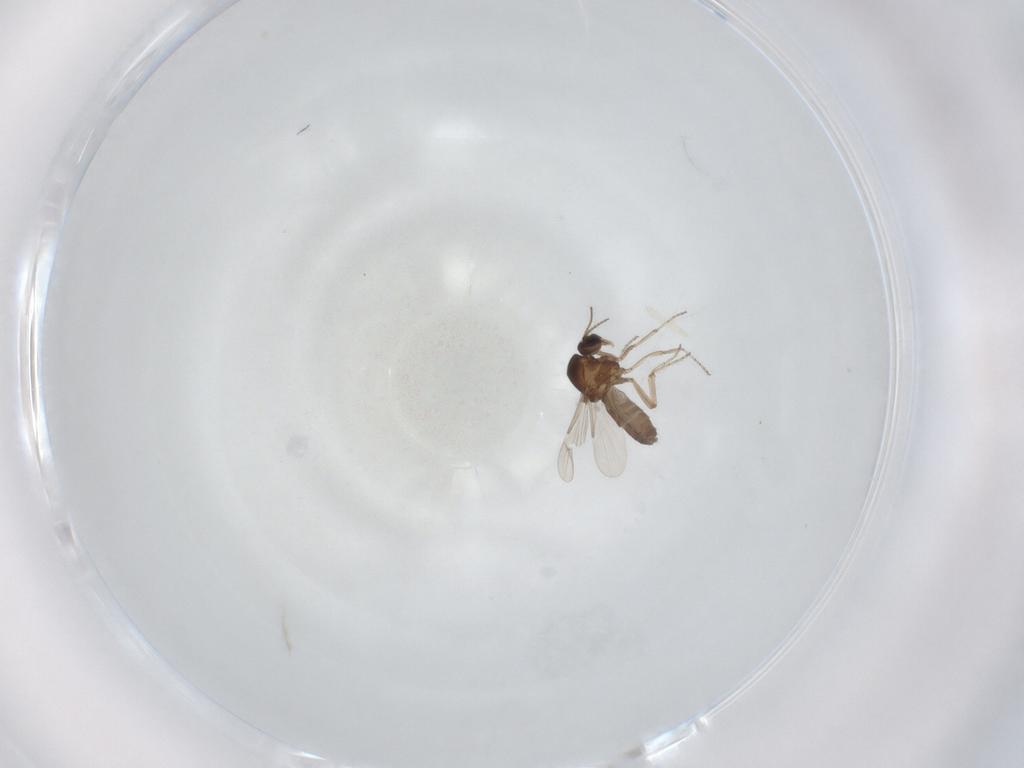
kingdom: Animalia
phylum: Arthropoda
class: Insecta
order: Diptera
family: Ceratopogonidae
